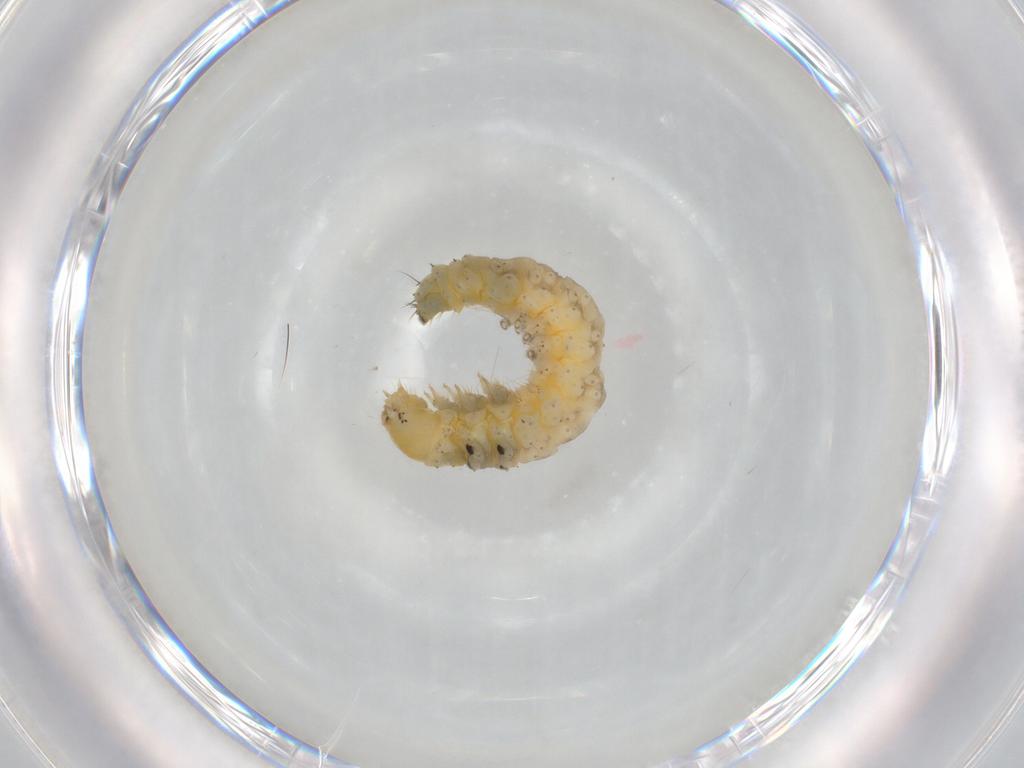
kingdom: Animalia
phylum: Arthropoda
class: Insecta
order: Lepidoptera
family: Epermeniidae
